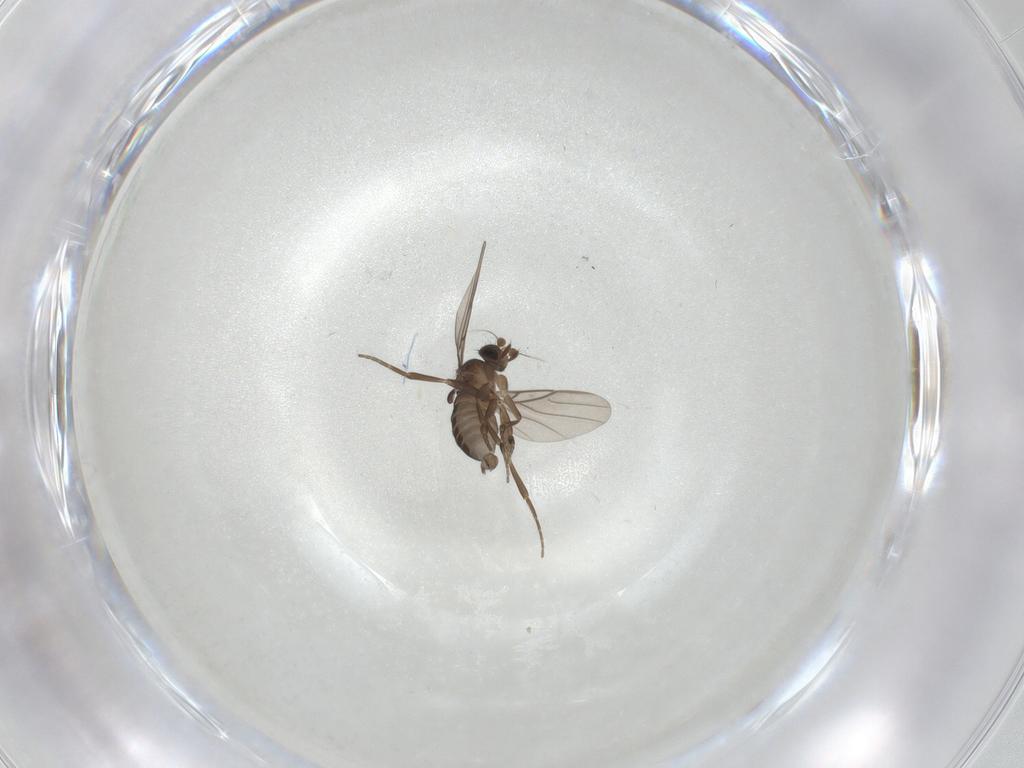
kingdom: Animalia
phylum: Arthropoda
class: Insecta
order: Diptera
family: Phoridae
